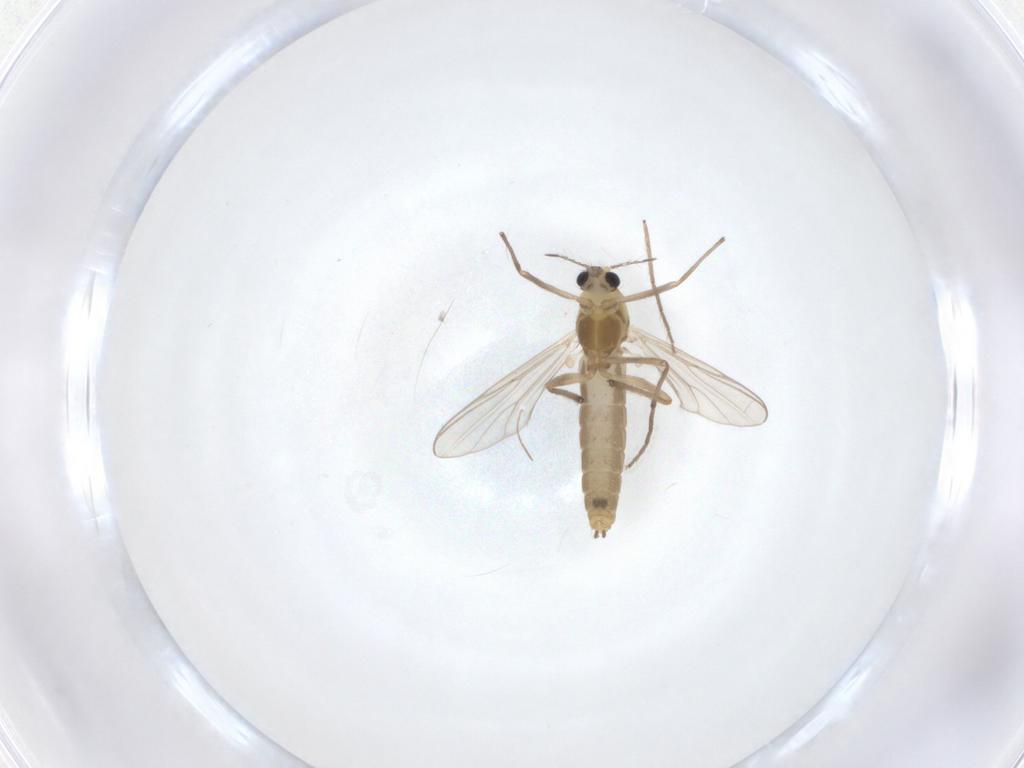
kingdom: Animalia
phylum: Arthropoda
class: Insecta
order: Diptera
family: Chironomidae
